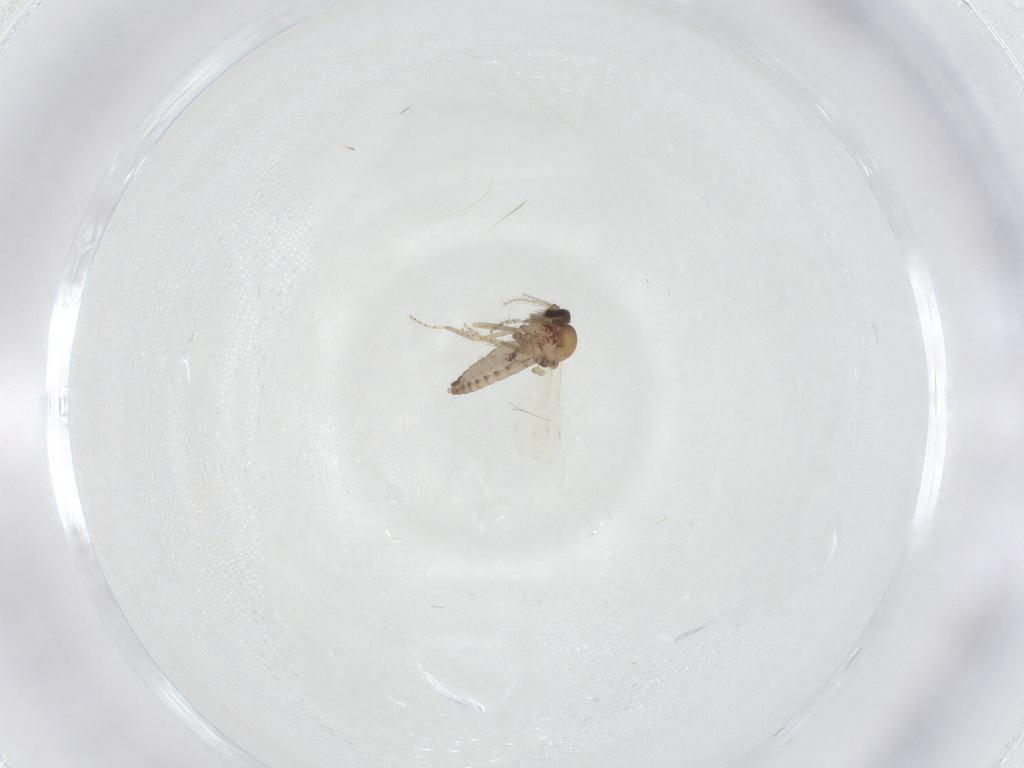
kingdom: Animalia
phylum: Arthropoda
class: Insecta
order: Diptera
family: Ceratopogonidae
